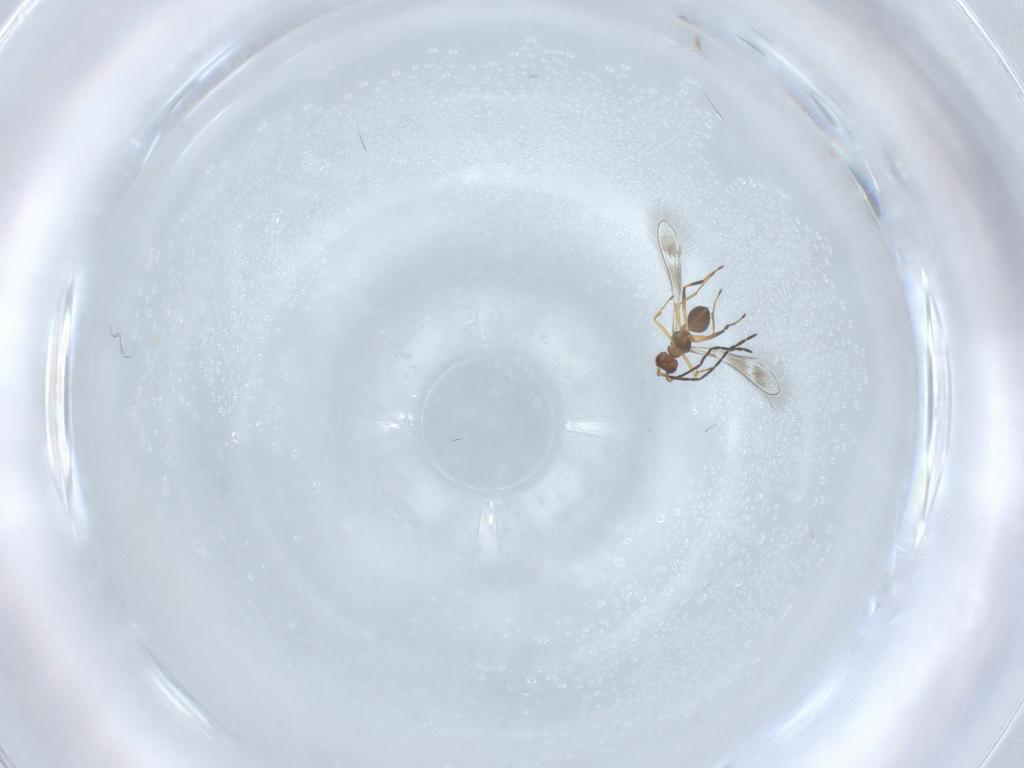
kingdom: Animalia
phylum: Arthropoda
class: Insecta
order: Hymenoptera
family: Mymaridae
